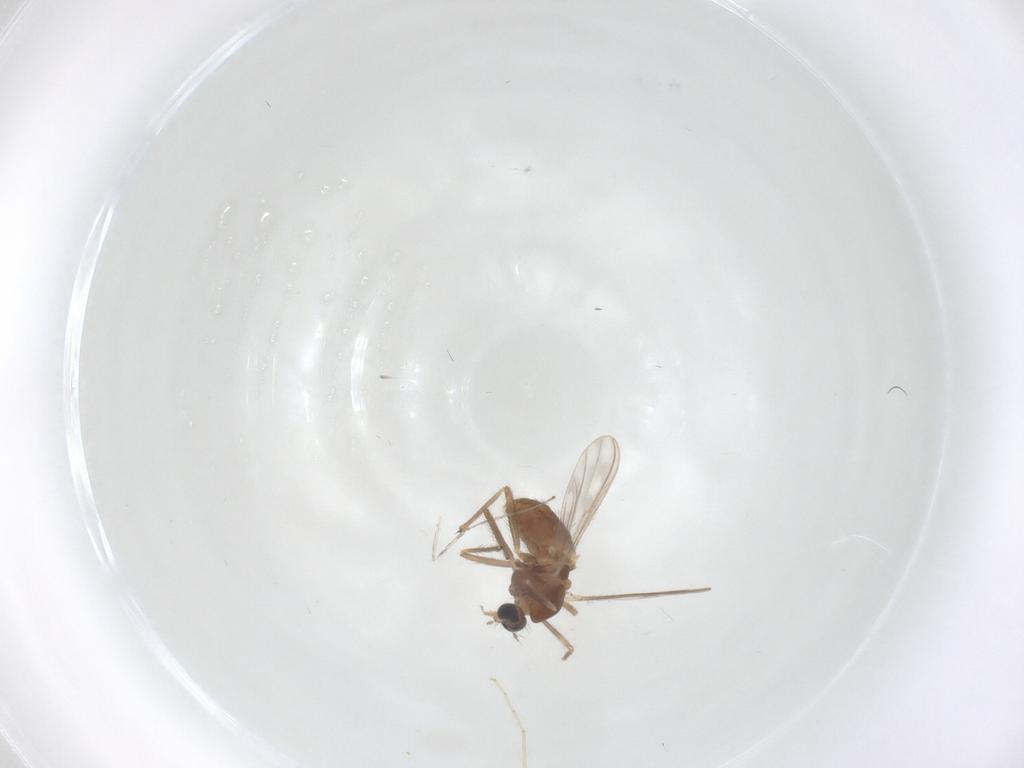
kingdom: Animalia
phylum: Arthropoda
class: Insecta
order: Diptera
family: Chironomidae
